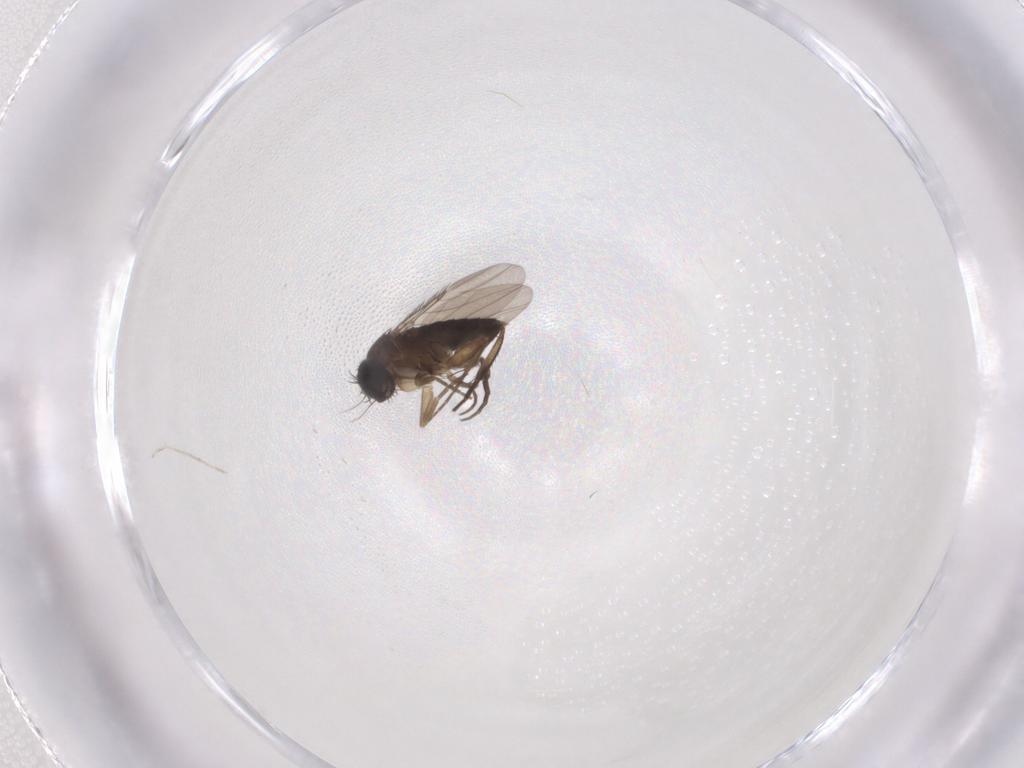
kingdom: Animalia
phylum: Arthropoda
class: Insecta
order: Diptera
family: Phoridae
